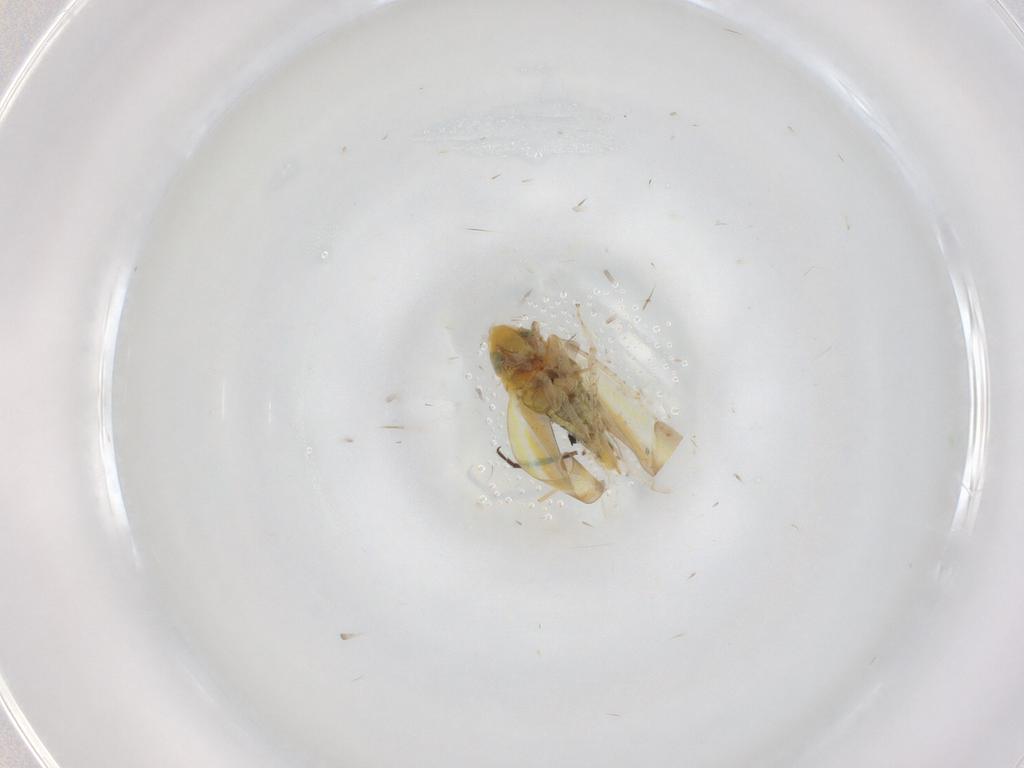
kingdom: Animalia
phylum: Arthropoda
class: Insecta
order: Hemiptera
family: Cicadellidae
